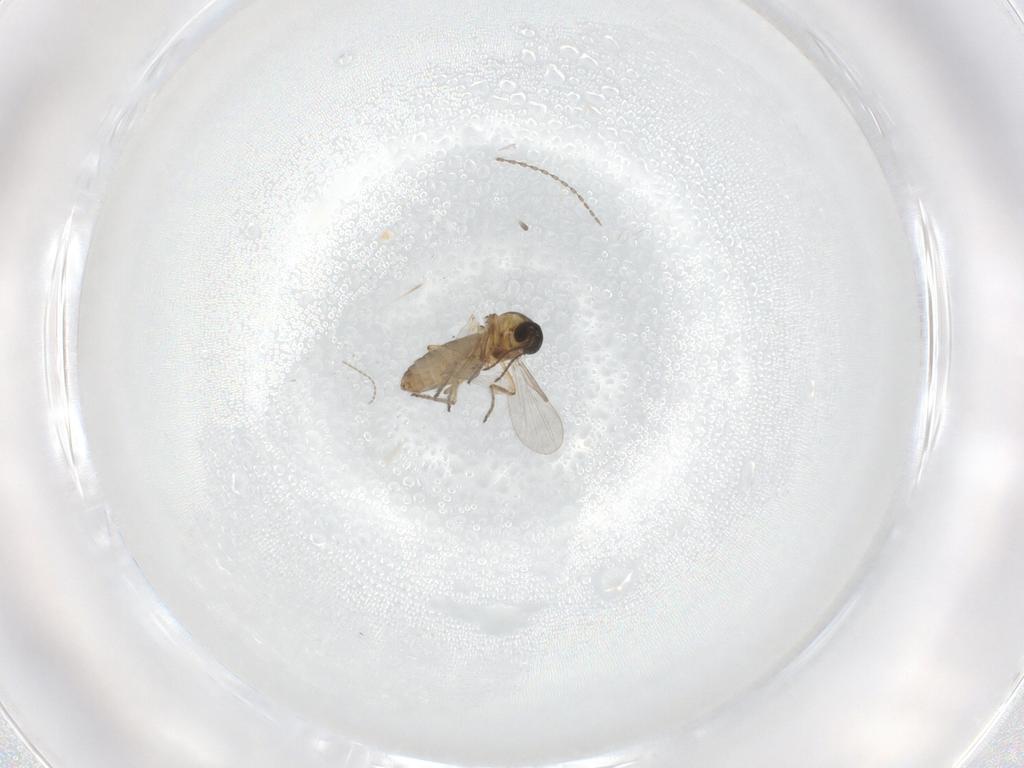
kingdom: Animalia
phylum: Arthropoda
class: Insecta
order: Diptera
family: Ceratopogonidae
